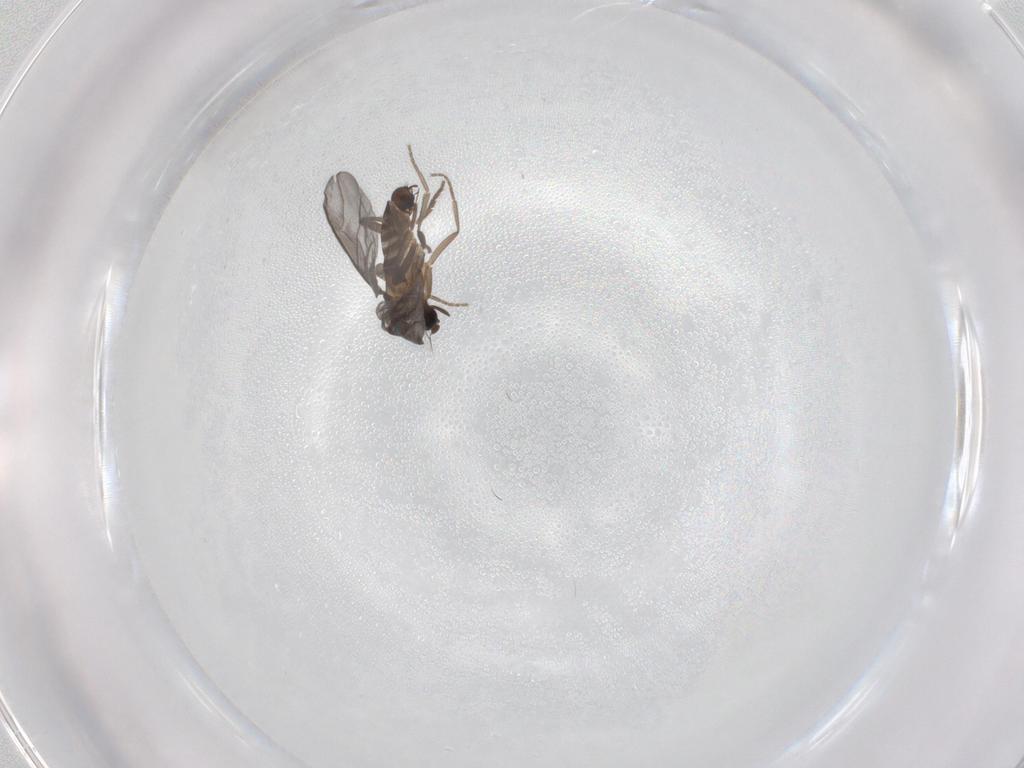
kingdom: Animalia
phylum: Arthropoda
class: Insecta
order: Diptera
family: Phoridae
